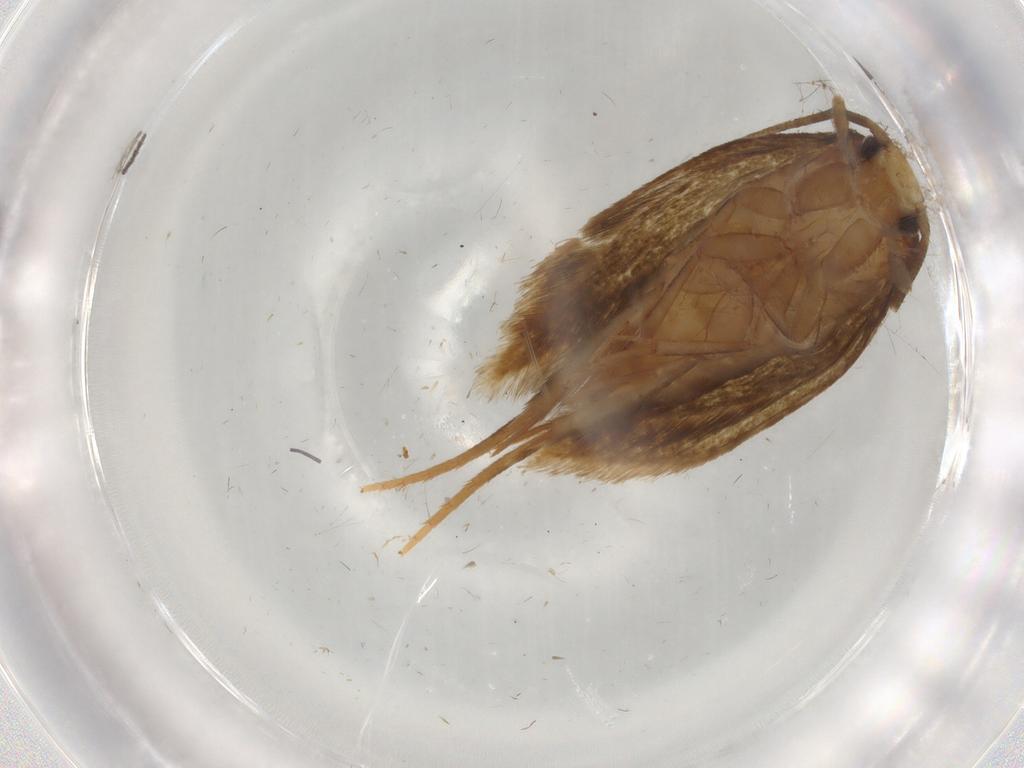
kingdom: Animalia
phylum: Arthropoda
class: Insecta
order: Lepidoptera
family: Tineidae
